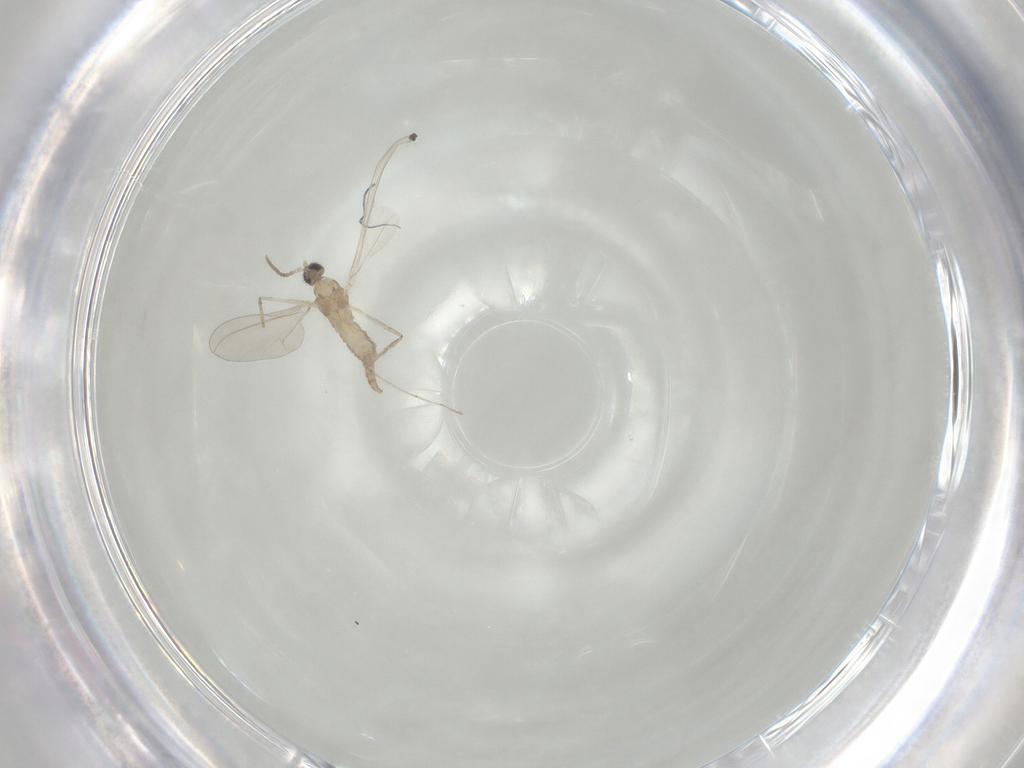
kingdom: Animalia
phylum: Arthropoda
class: Insecta
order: Diptera
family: Cecidomyiidae
